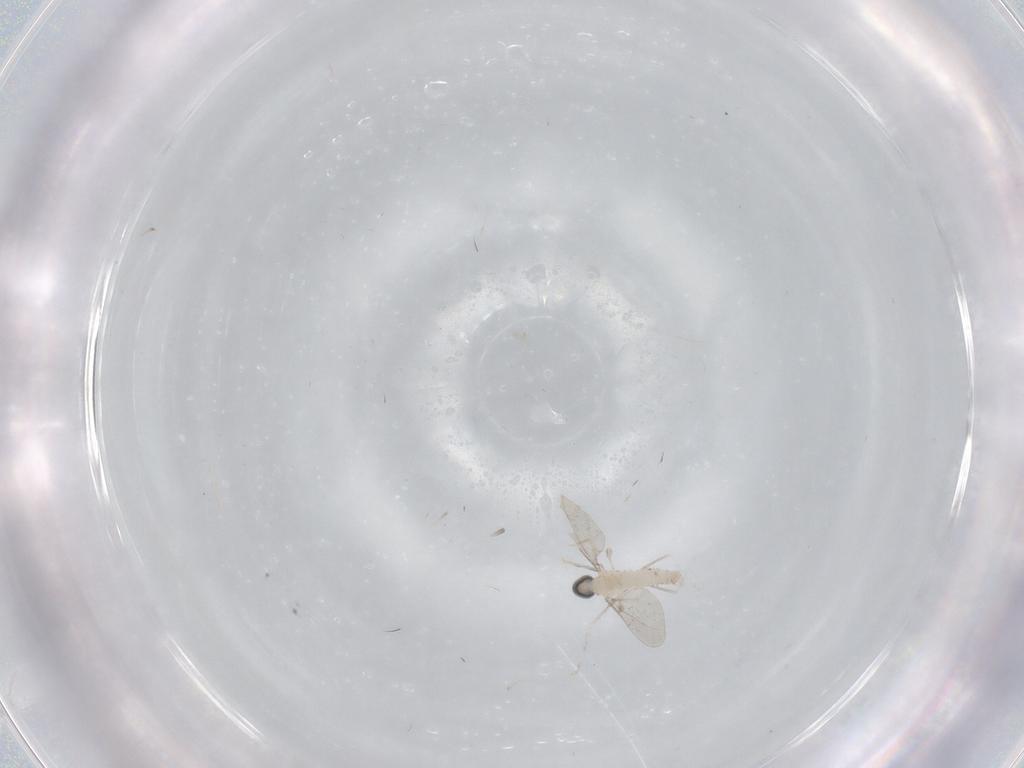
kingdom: Animalia
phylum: Arthropoda
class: Insecta
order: Diptera
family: Cecidomyiidae
